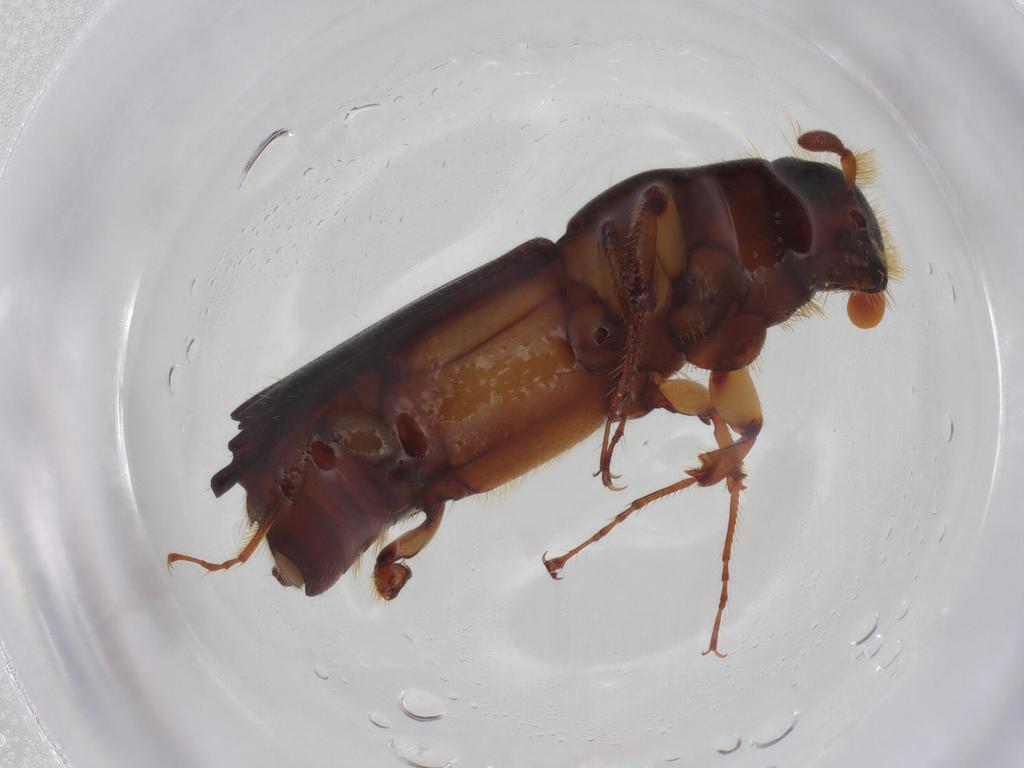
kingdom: Animalia
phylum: Arthropoda
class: Insecta
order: Coleoptera
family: Curculionidae
